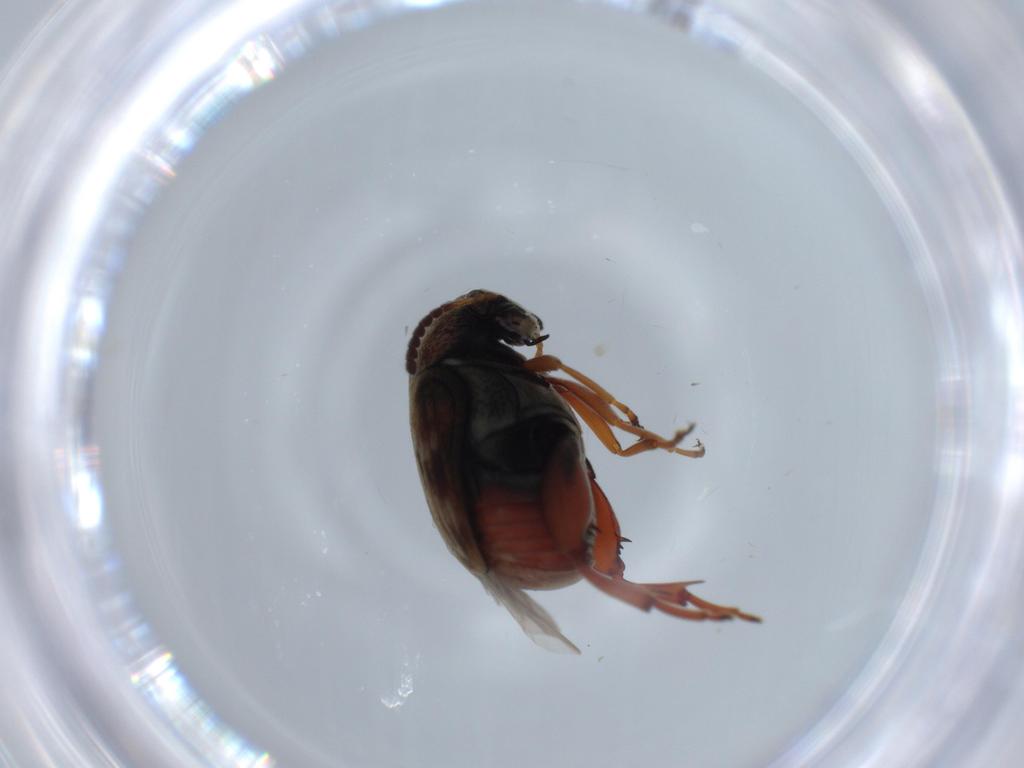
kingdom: Animalia
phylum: Arthropoda
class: Insecta
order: Coleoptera
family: Chrysomelidae
